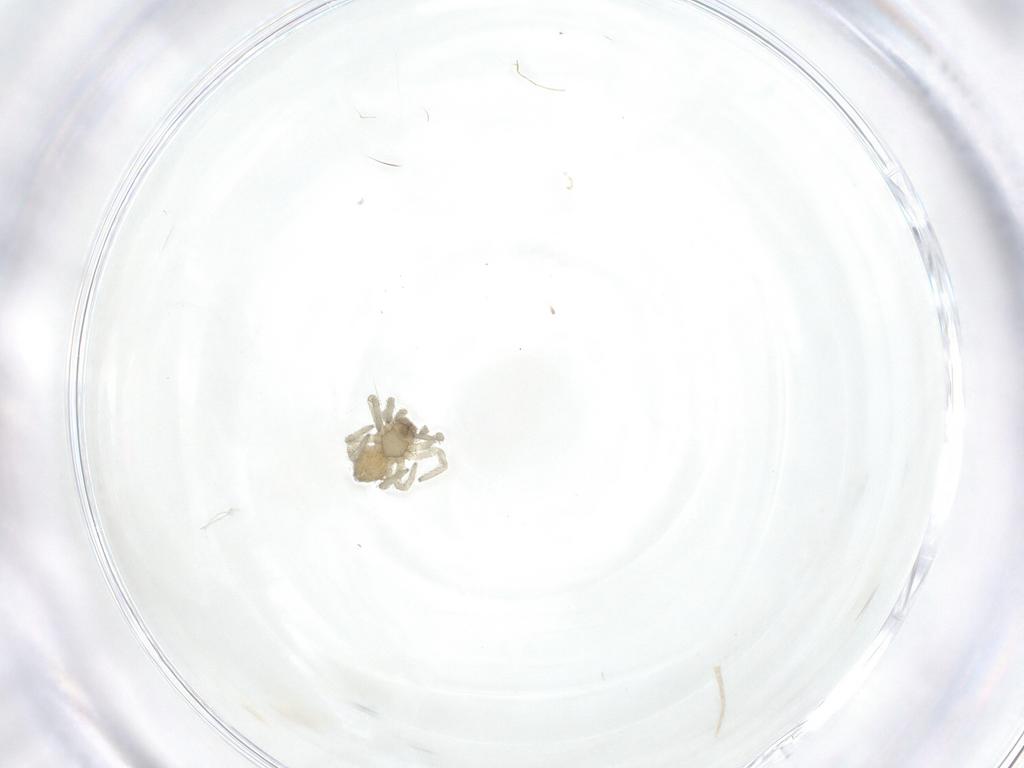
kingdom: Animalia
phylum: Arthropoda
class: Arachnida
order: Araneae
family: Dictynidae
